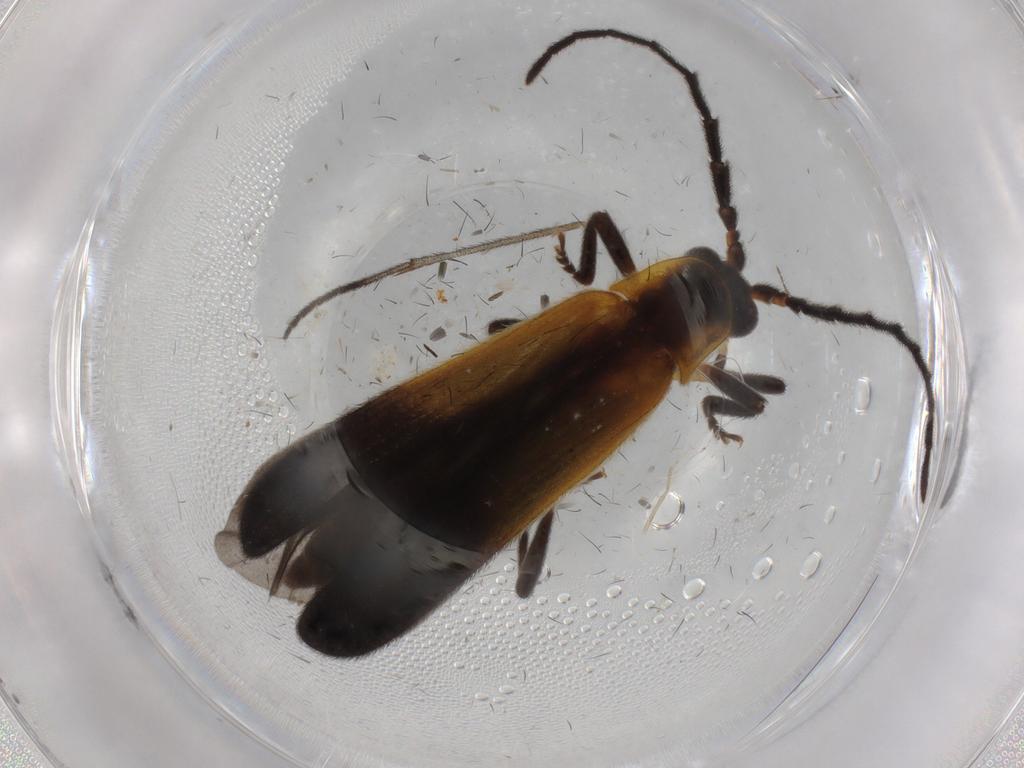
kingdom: Animalia
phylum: Arthropoda
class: Insecta
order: Coleoptera
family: Lycidae
